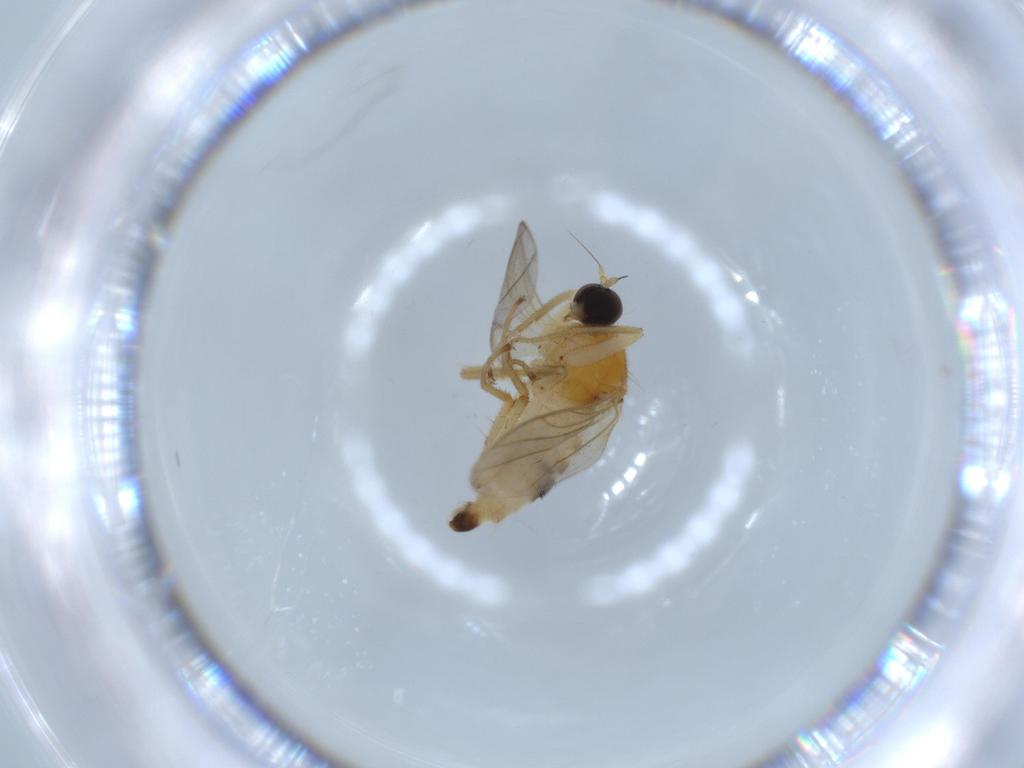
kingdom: Animalia
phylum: Arthropoda
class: Insecta
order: Diptera
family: Hybotidae
